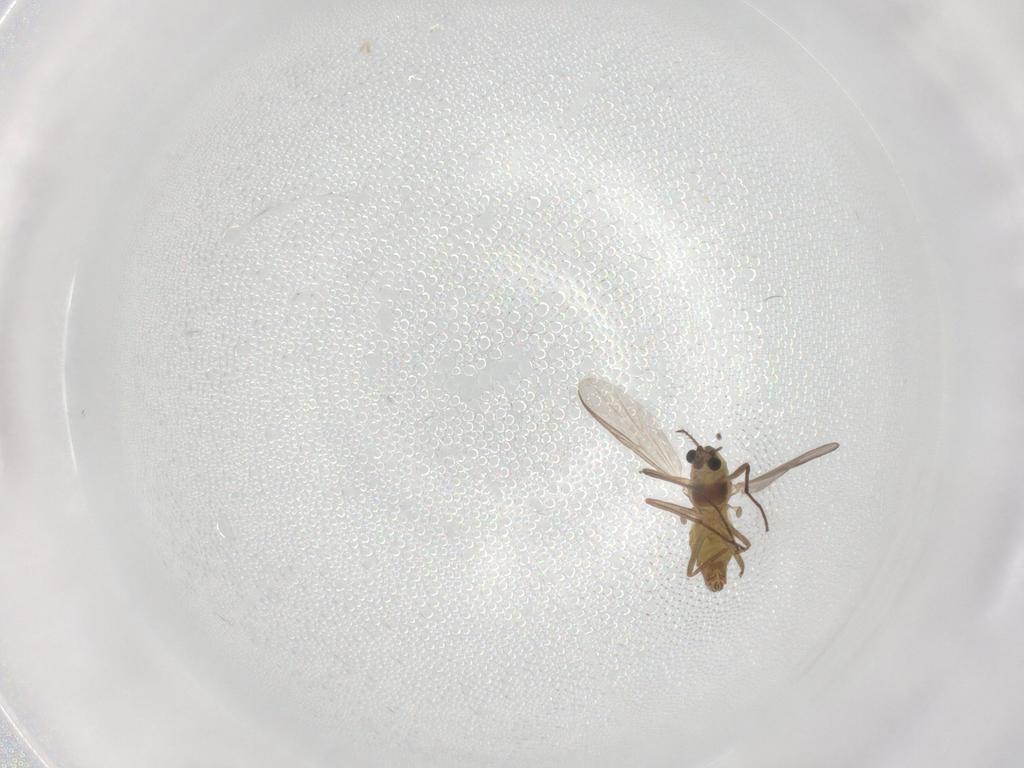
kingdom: Animalia
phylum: Arthropoda
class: Insecta
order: Diptera
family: Chironomidae
